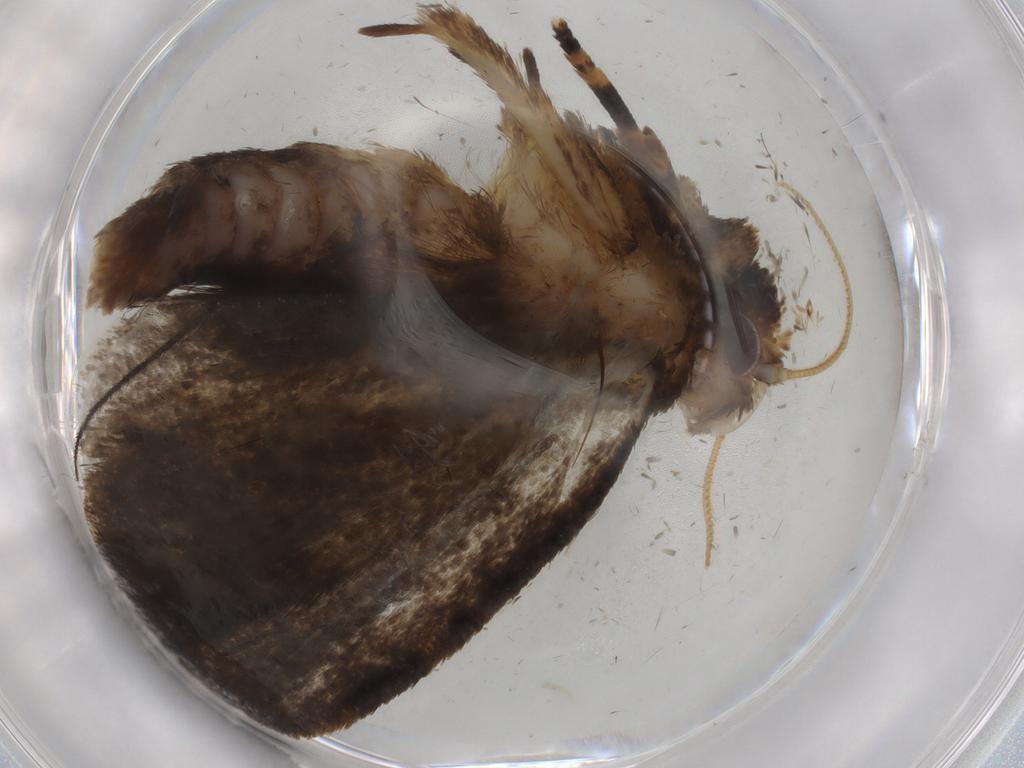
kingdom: Animalia
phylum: Arthropoda
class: Insecta
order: Lepidoptera
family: Tineidae
